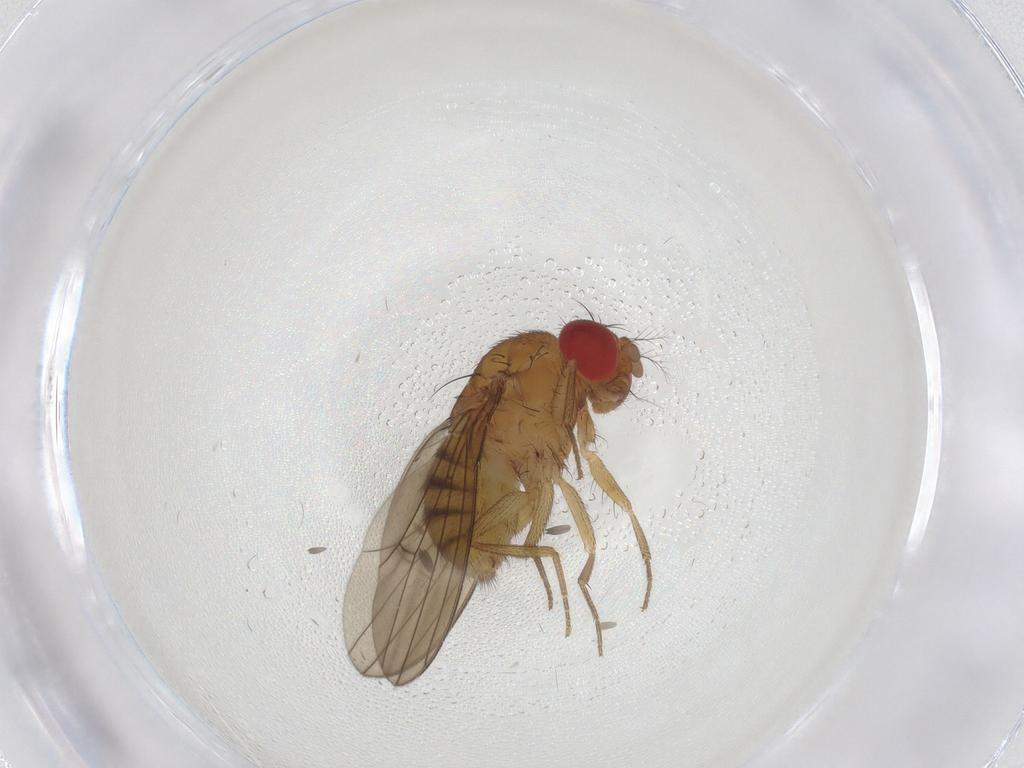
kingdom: Animalia
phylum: Arthropoda
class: Insecta
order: Diptera
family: Drosophilidae
